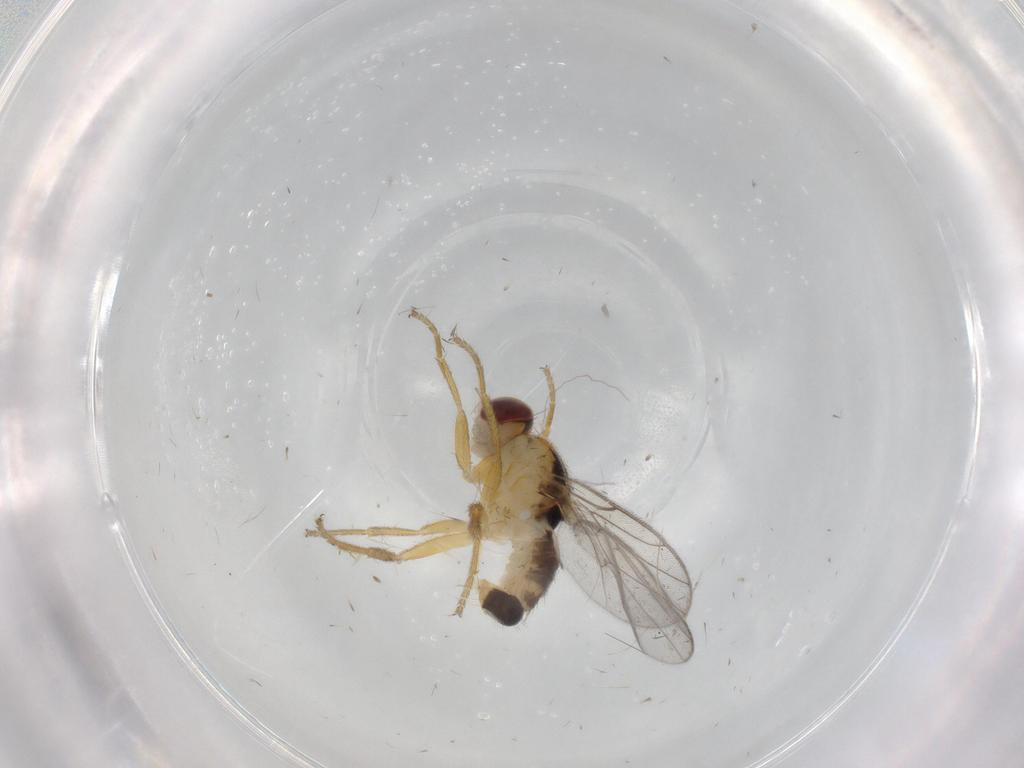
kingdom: Animalia
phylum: Arthropoda
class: Insecta
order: Diptera
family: Chloropidae
